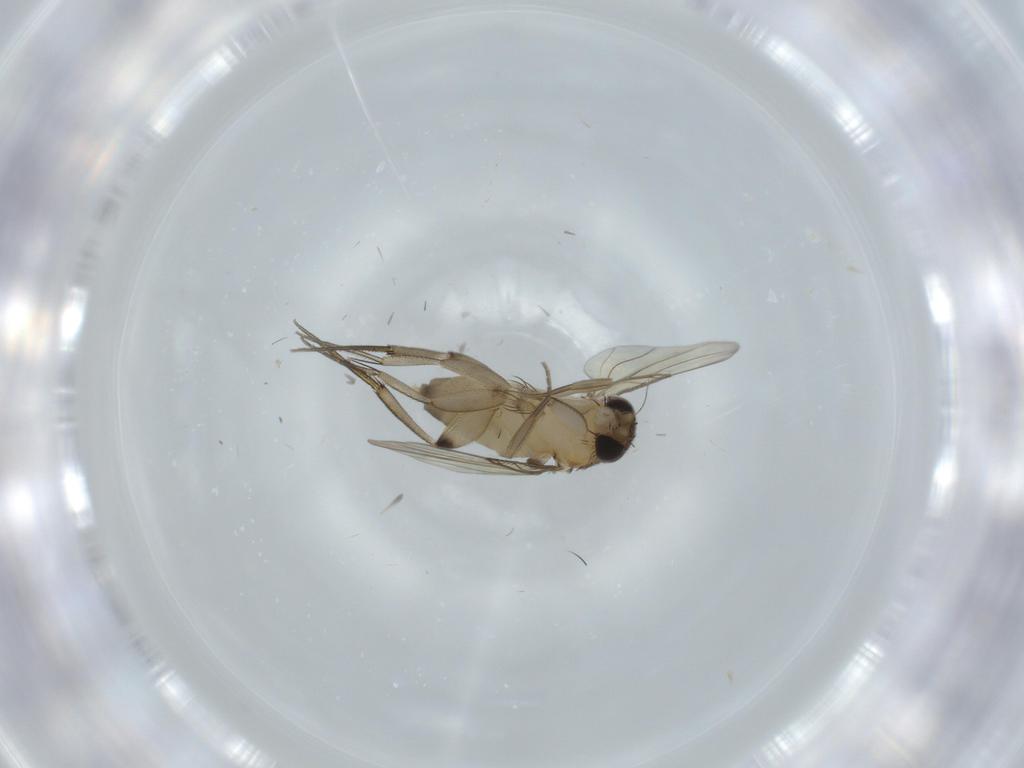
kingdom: Animalia
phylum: Arthropoda
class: Insecta
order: Diptera
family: Phoridae
